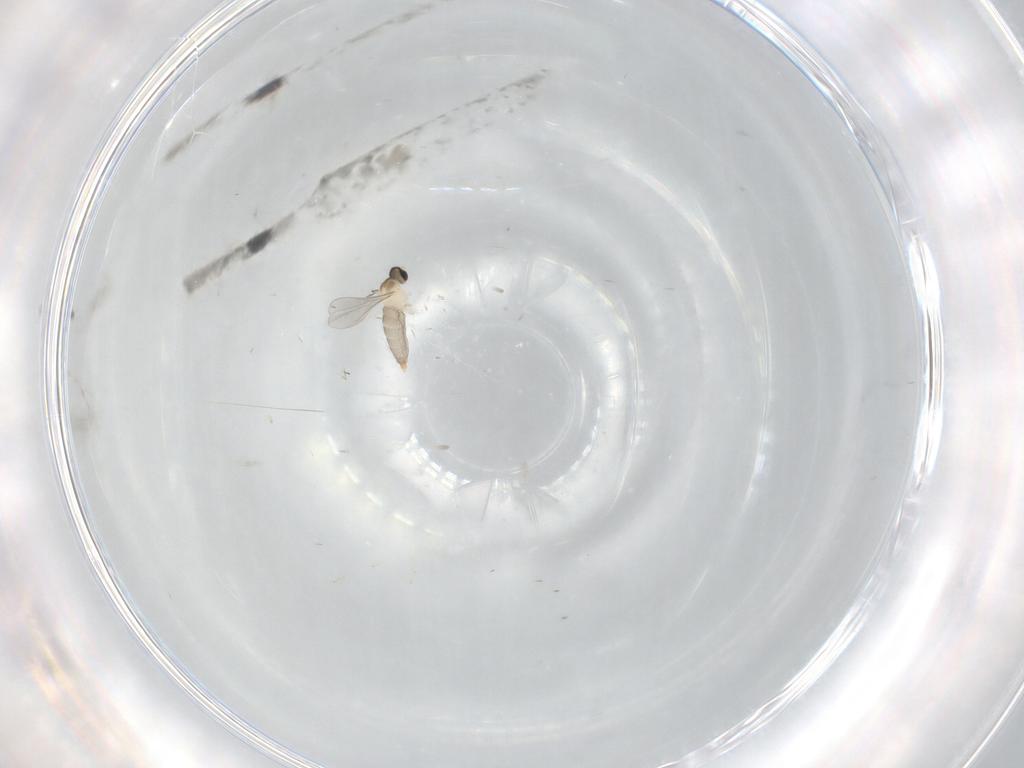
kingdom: Animalia
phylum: Arthropoda
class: Insecta
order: Diptera
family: Cecidomyiidae
